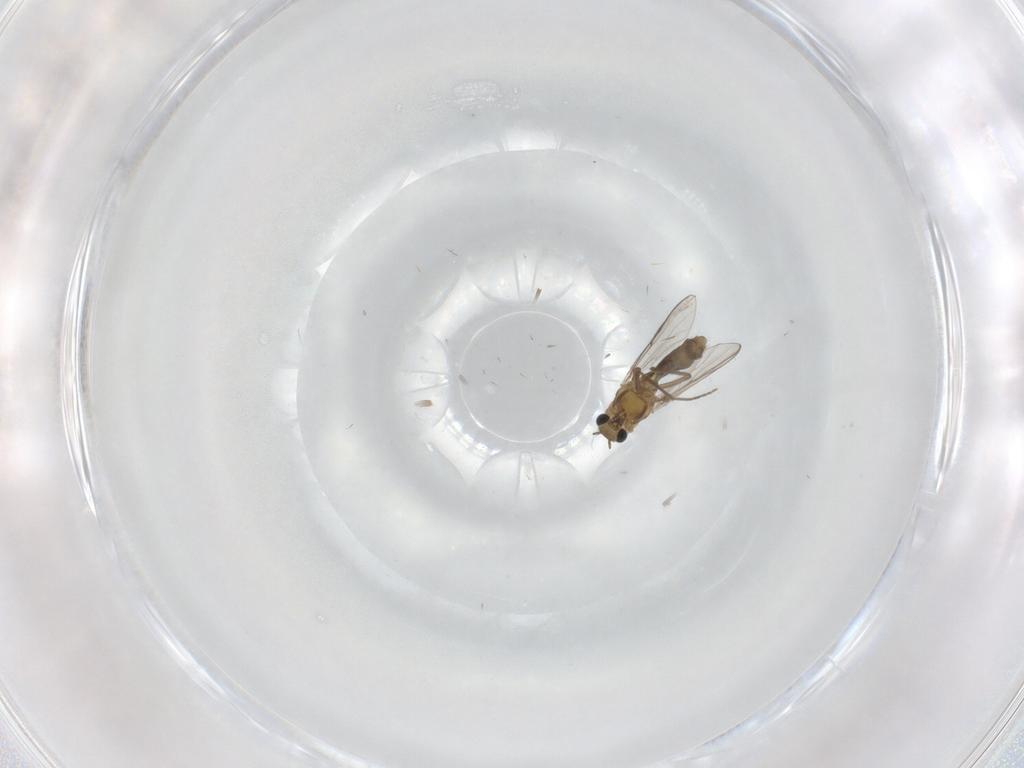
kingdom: Animalia
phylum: Arthropoda
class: Insecta
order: Diptera
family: Chironomidae
